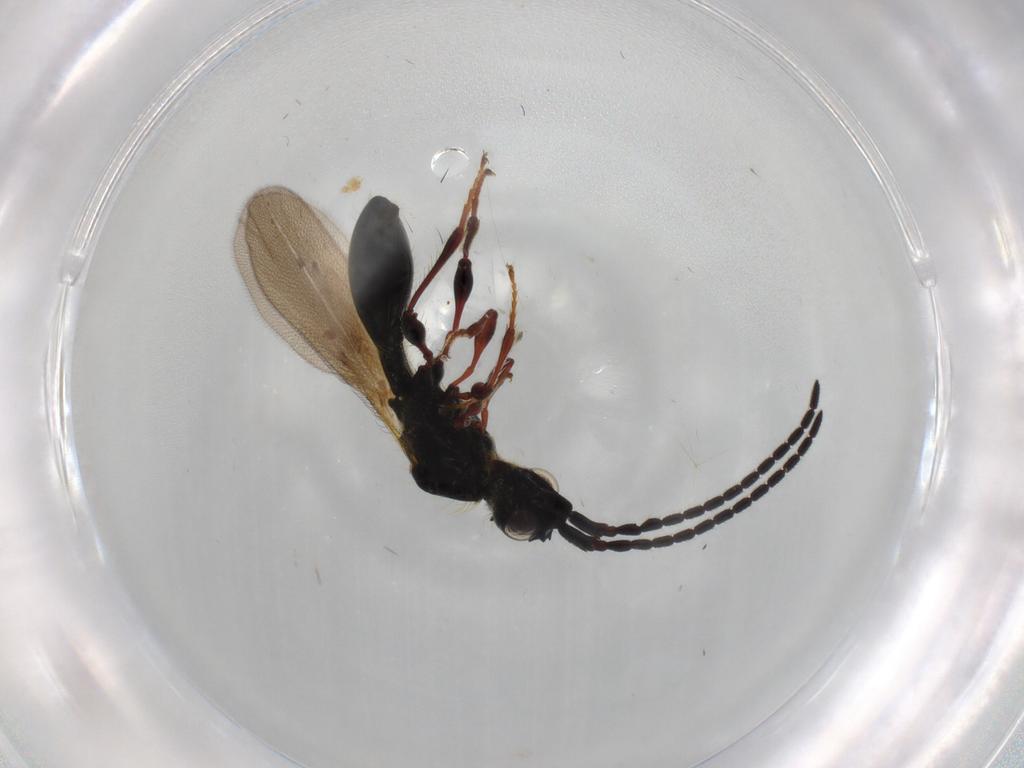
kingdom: Animalia
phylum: Arthropoda
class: Insecta
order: Hymenoptera
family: Diapriidae
